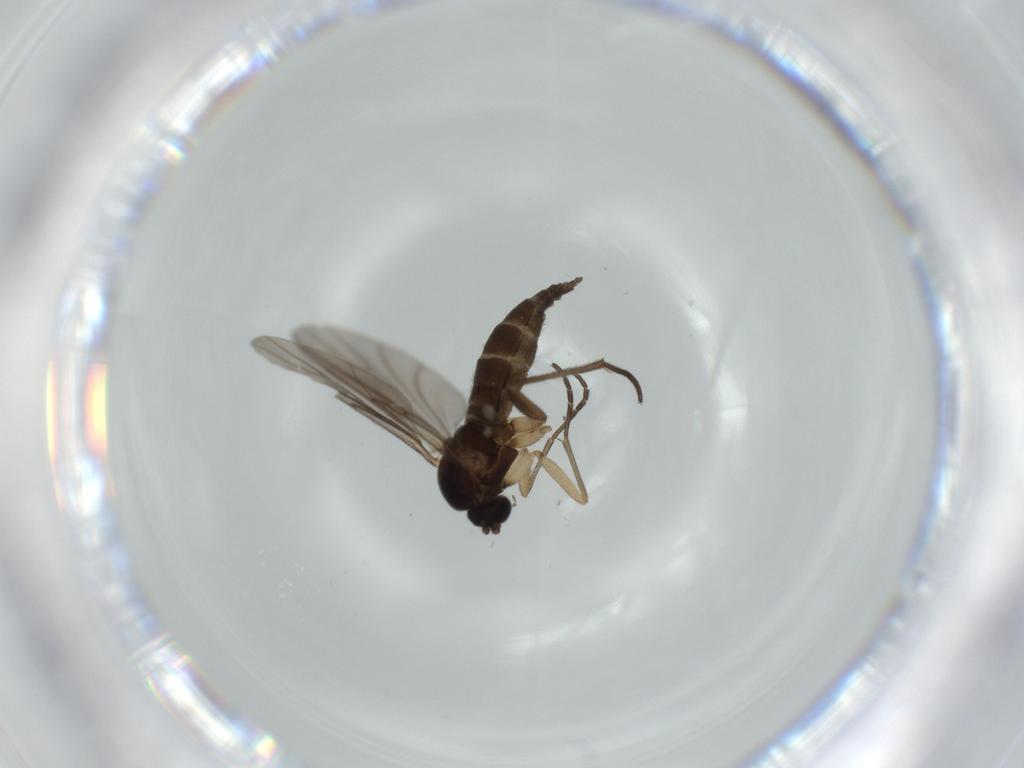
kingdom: Animalia
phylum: Arthropoda
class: Insecta
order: Diptera
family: Sciaridae
